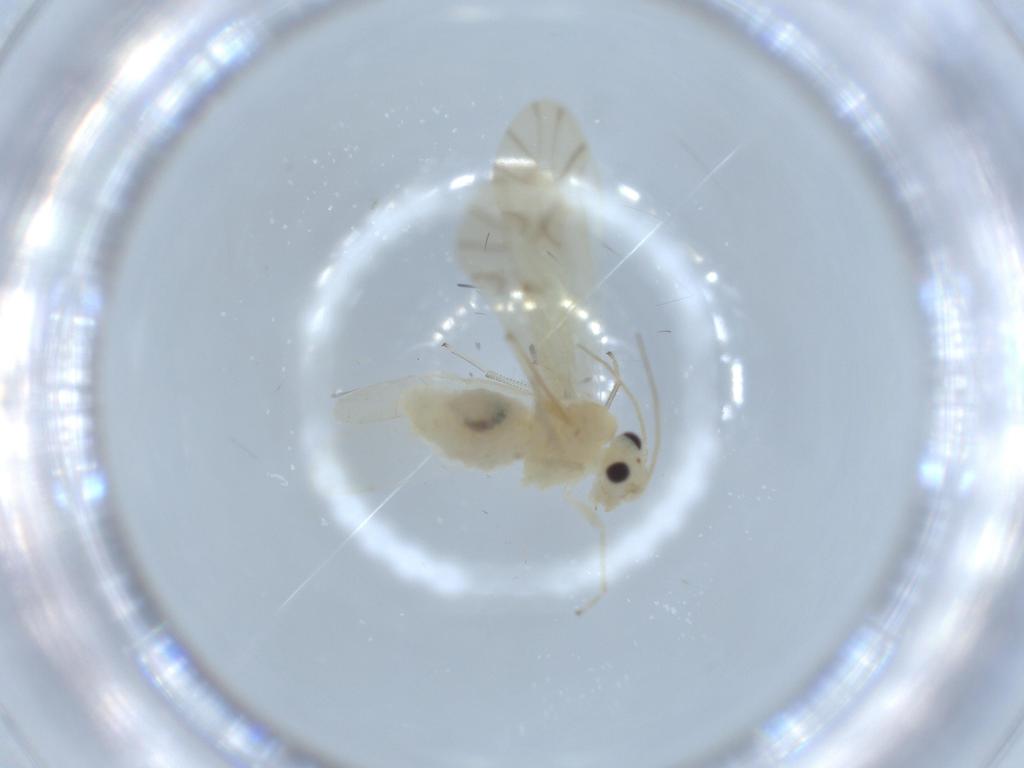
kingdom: Animalia
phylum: Arthropoda
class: Insecta
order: Psocodea
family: Caeciliusidae
